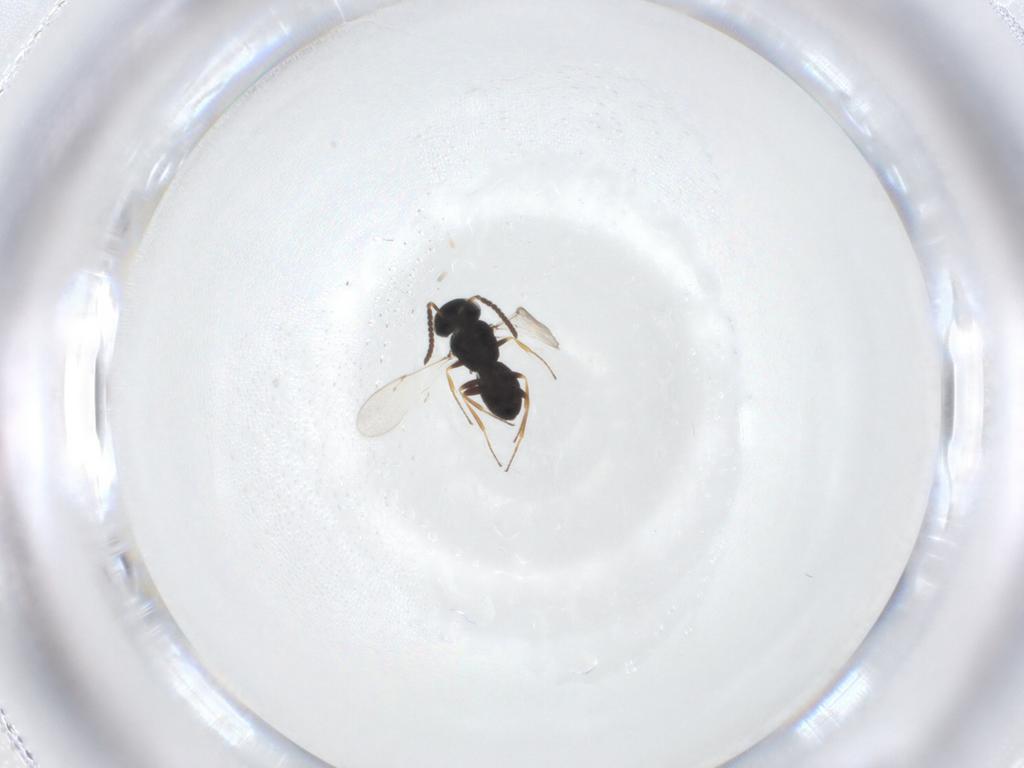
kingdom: Animalia
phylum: Arthropoda
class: Insecta
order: Hymenoptera
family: Scelionidae
